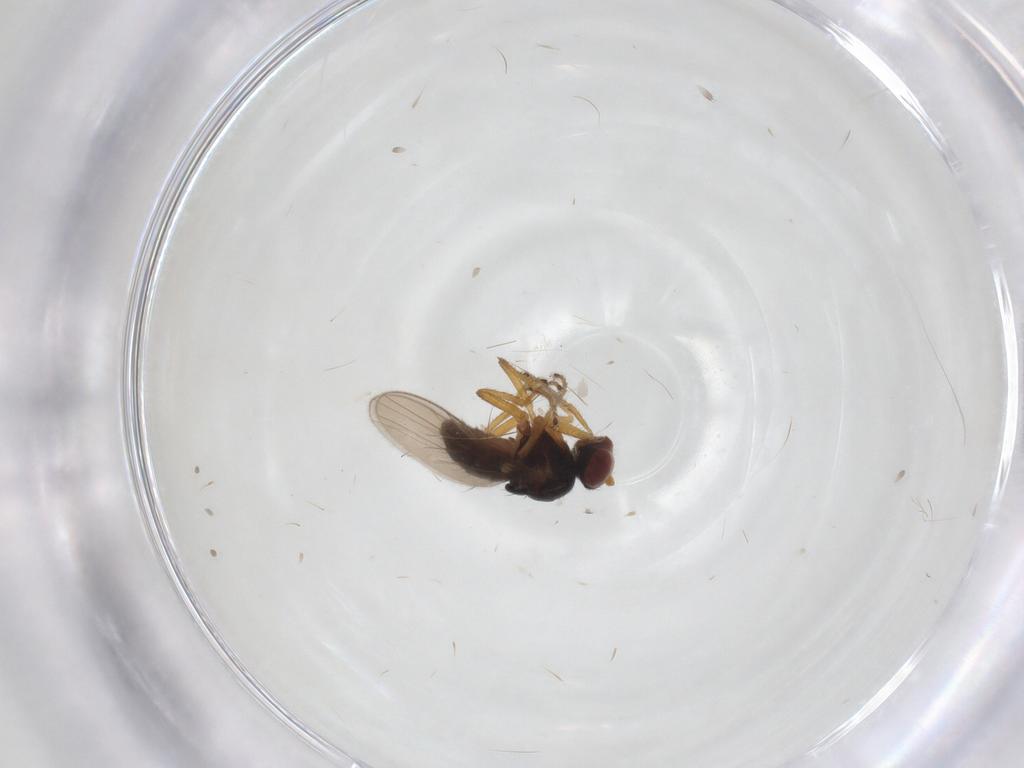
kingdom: Animalia
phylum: Arthropoda
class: Insecta
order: Diptera
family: Ephydridae
